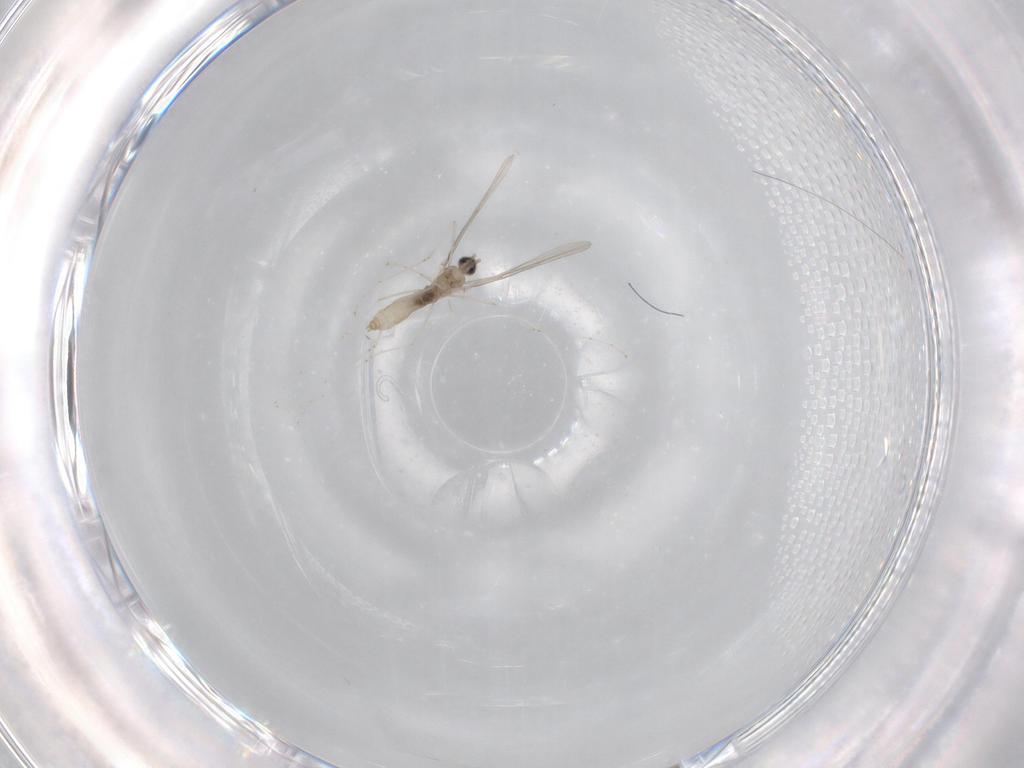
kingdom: Animalia
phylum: Arthropoda
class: Insecta
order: Diptera
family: Cecidomyiidae
